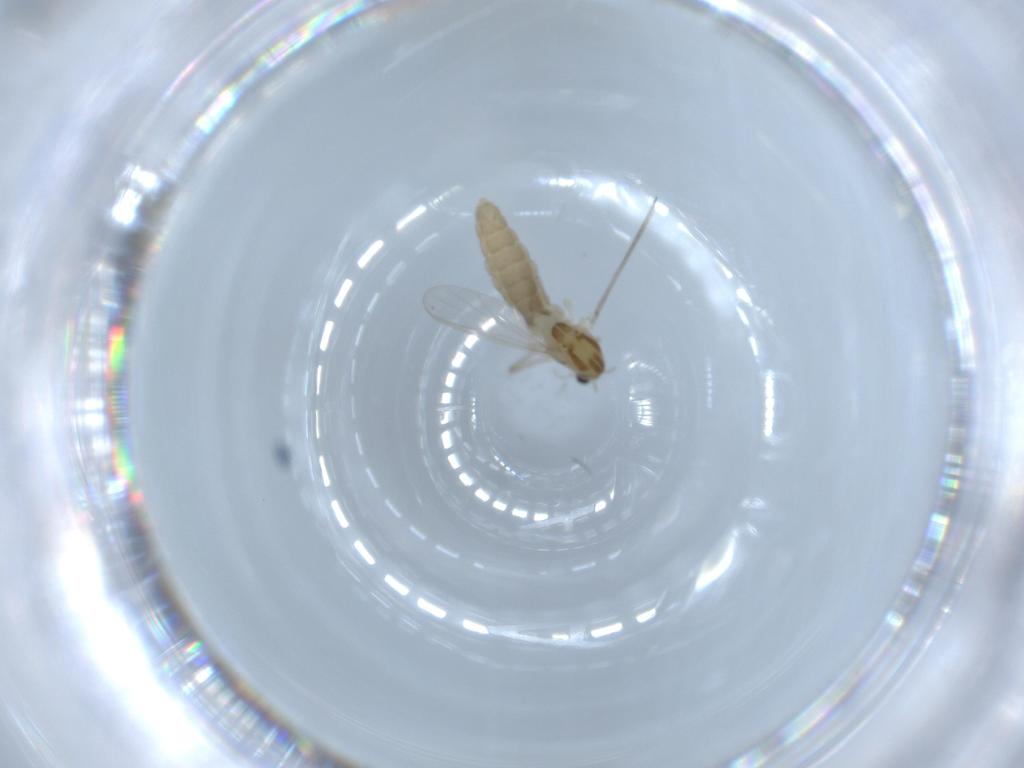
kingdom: Animalia
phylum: Arthropoda
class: Insecta
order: Diptera
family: Chironomidae
